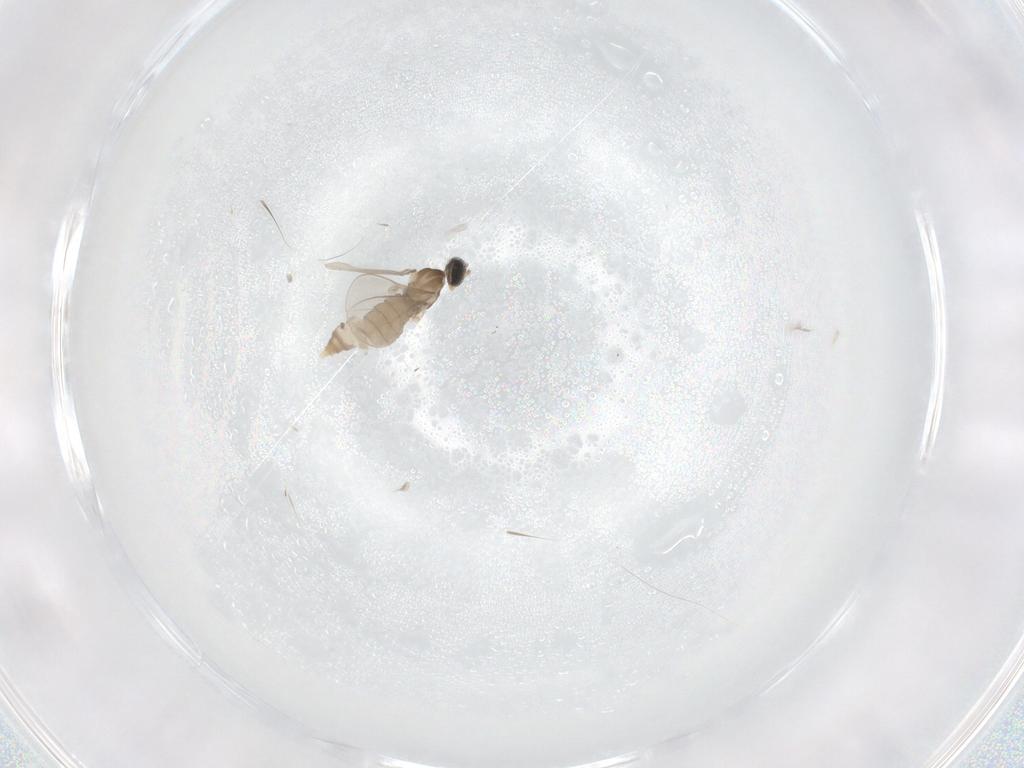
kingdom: Animalia
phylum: Arthropoda
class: Insecta
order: Diptera
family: Cecidomyiidae
